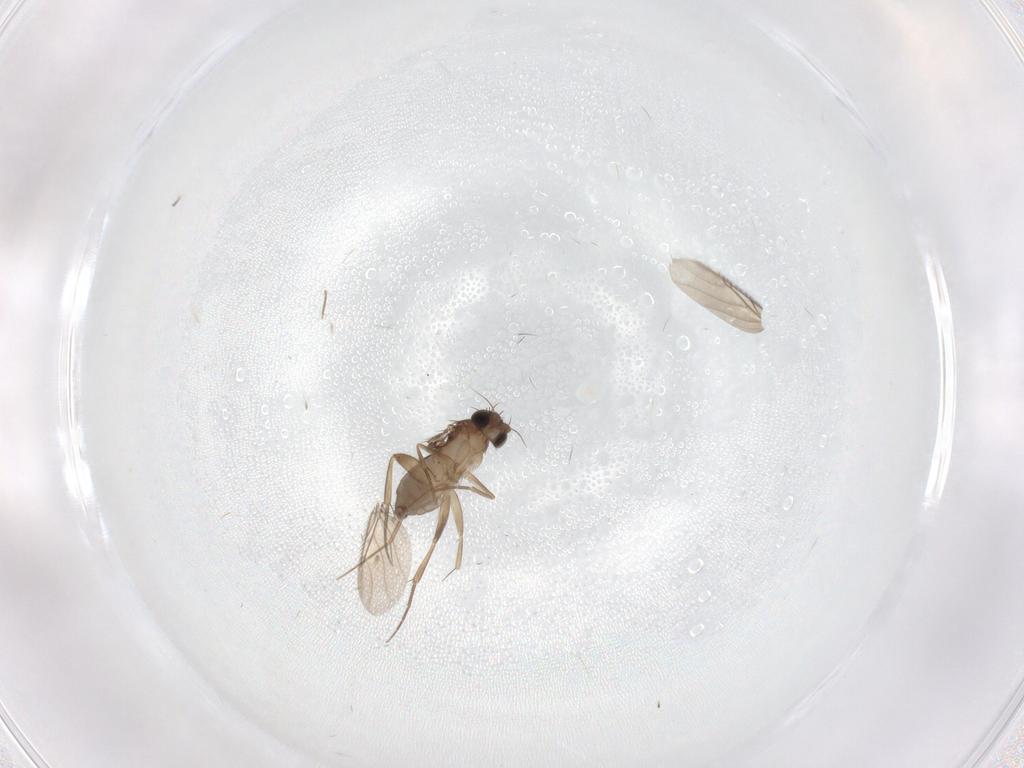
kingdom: Animalia
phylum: Arthropoda
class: Insecta
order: Diptera
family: Phoridae
